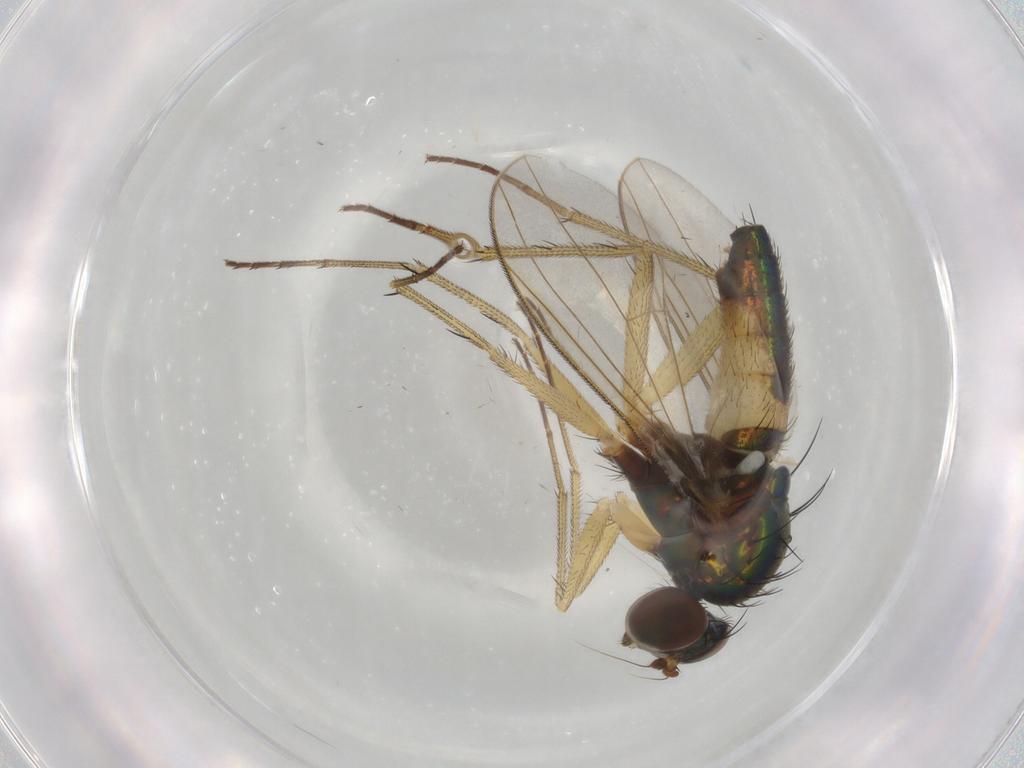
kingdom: Animalia
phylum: Arthropoda
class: Insecta
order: Diptera
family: Dolichopodidae
